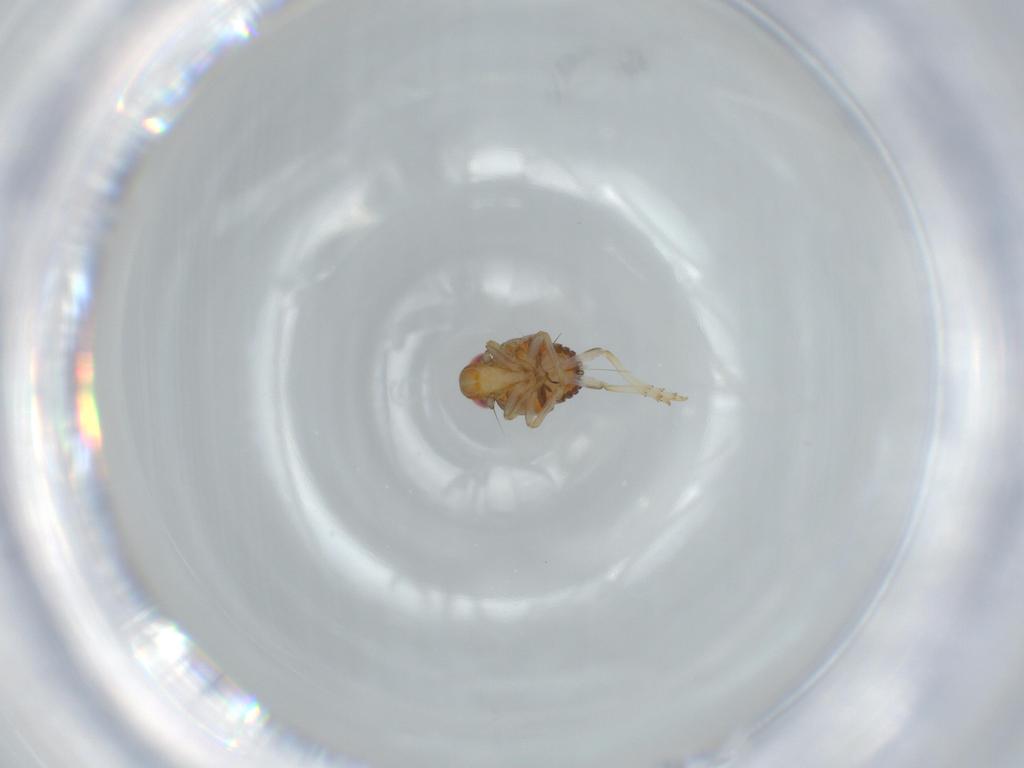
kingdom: Animalia
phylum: Arthropoda
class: Insecta
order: Hemiptera
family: Issidae
